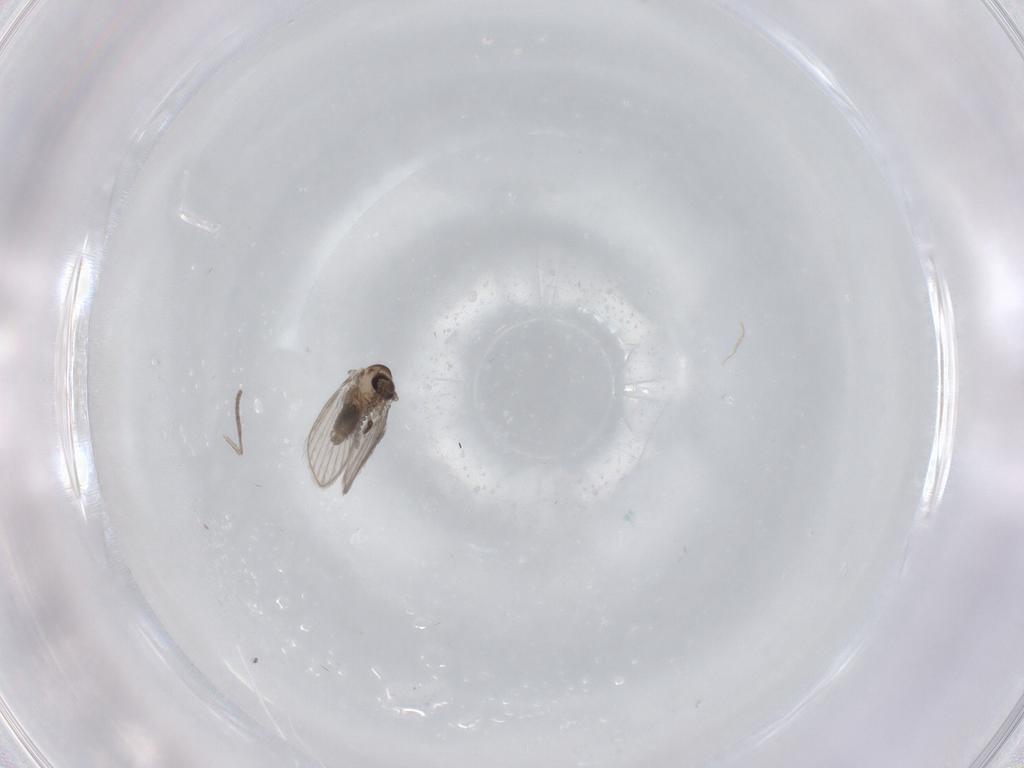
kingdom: Animalia
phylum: Arthropoda
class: Insecta
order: Diptera
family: Psychodidae
